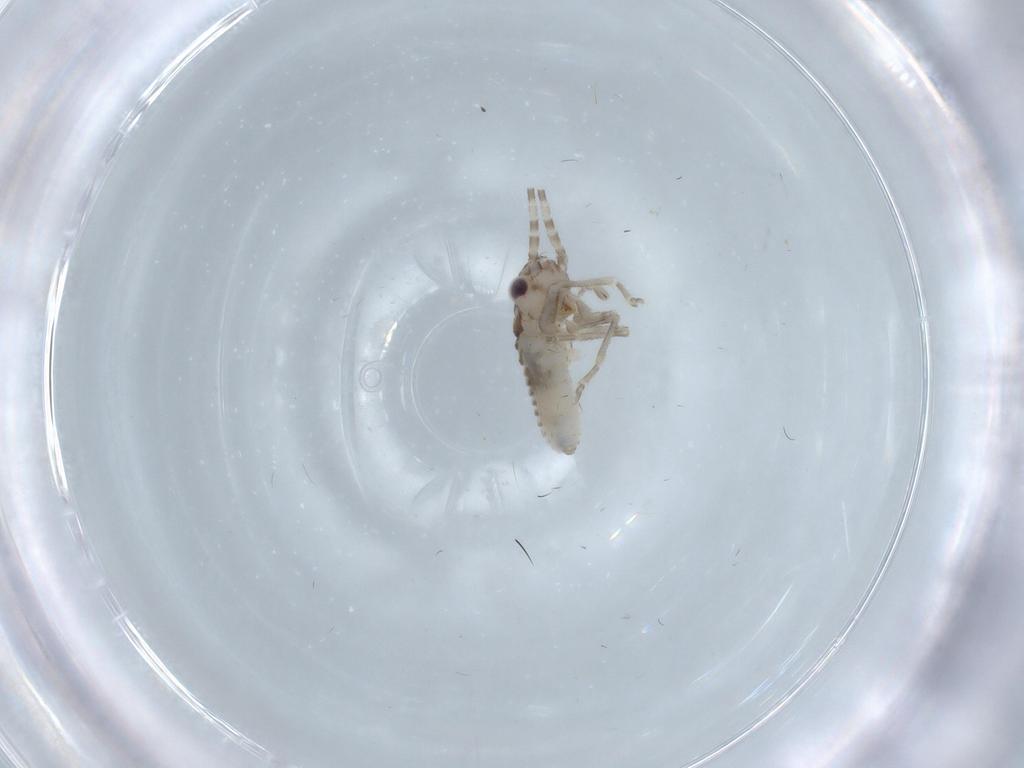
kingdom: Animalia
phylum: Arthropoda
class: Insecta
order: Orthoptera
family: Trigonidiidae
